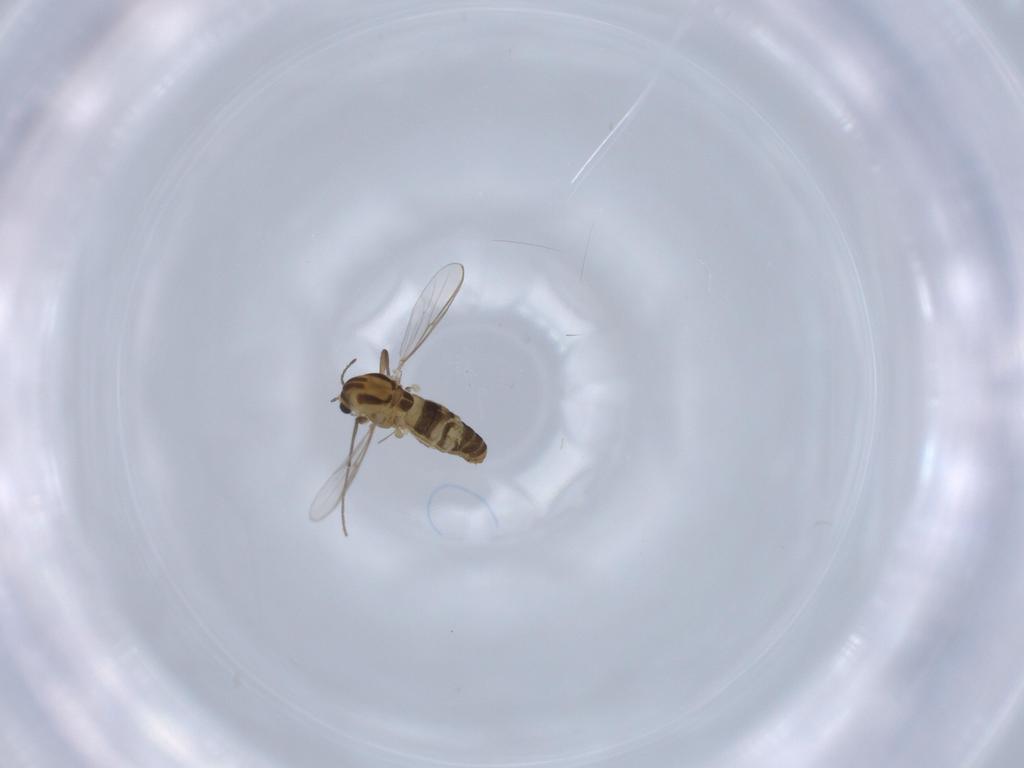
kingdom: Animalia
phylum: Arthropoda
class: Insecta
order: Diptera
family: Chironomidae
